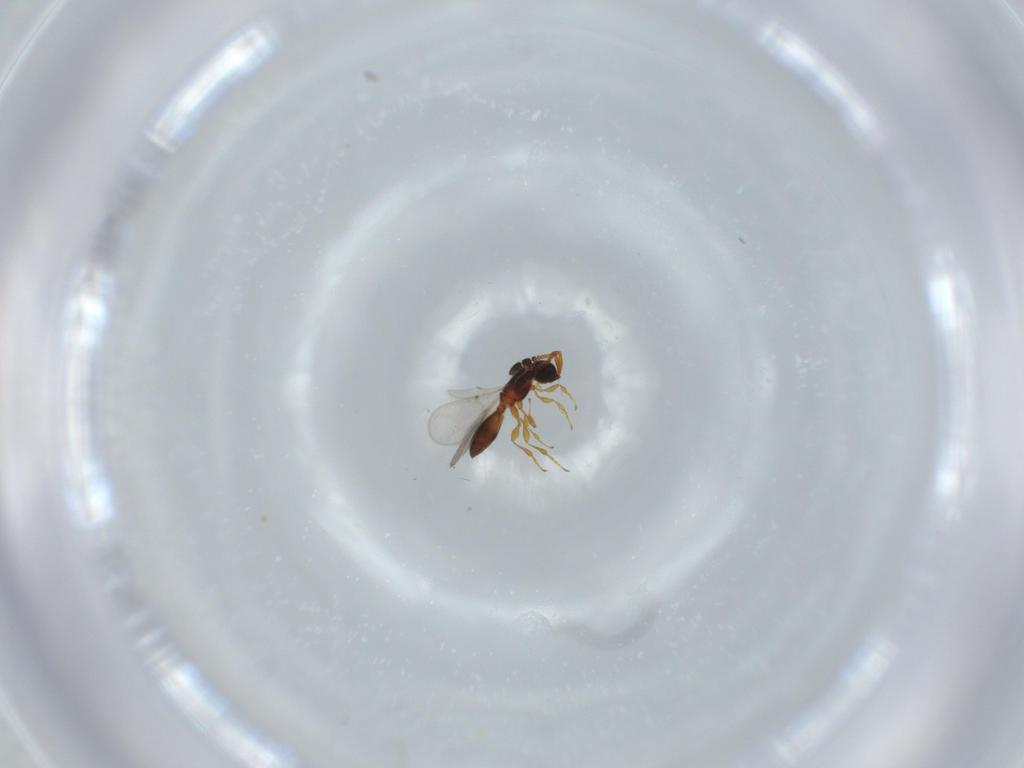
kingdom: Animalia
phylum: Arthropoda
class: Insecta
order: Hymenoptera
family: Diapriidae
